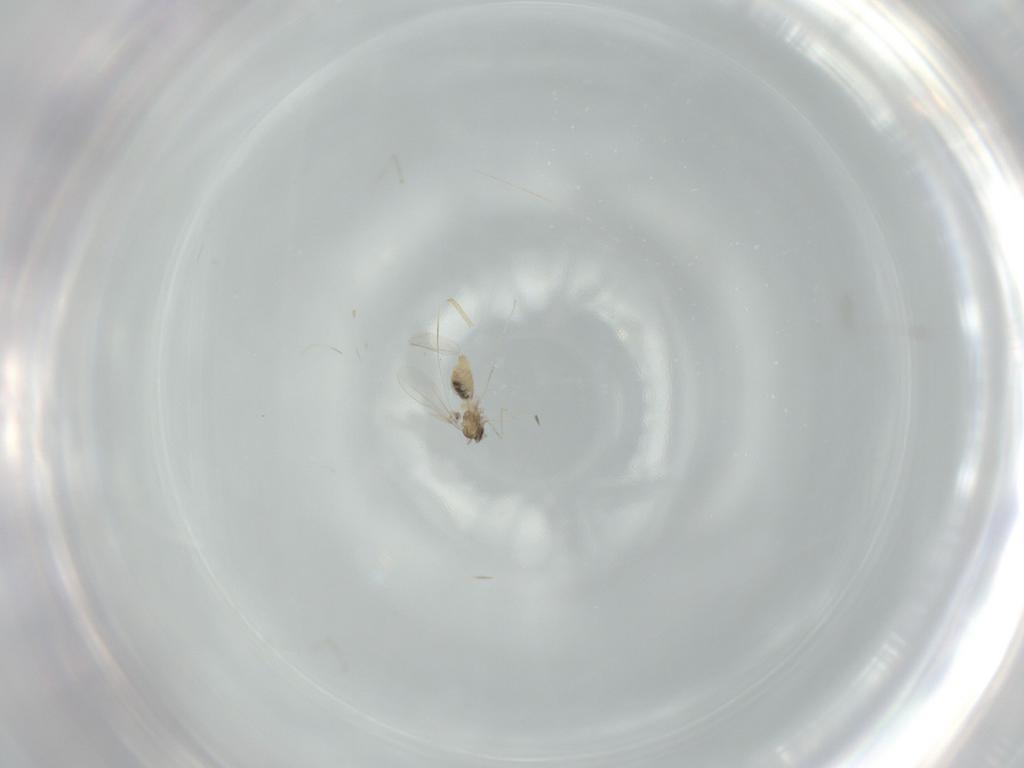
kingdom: Animalia
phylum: Arthropoda
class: Insecta
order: Diptera
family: Cecidomyiidae
